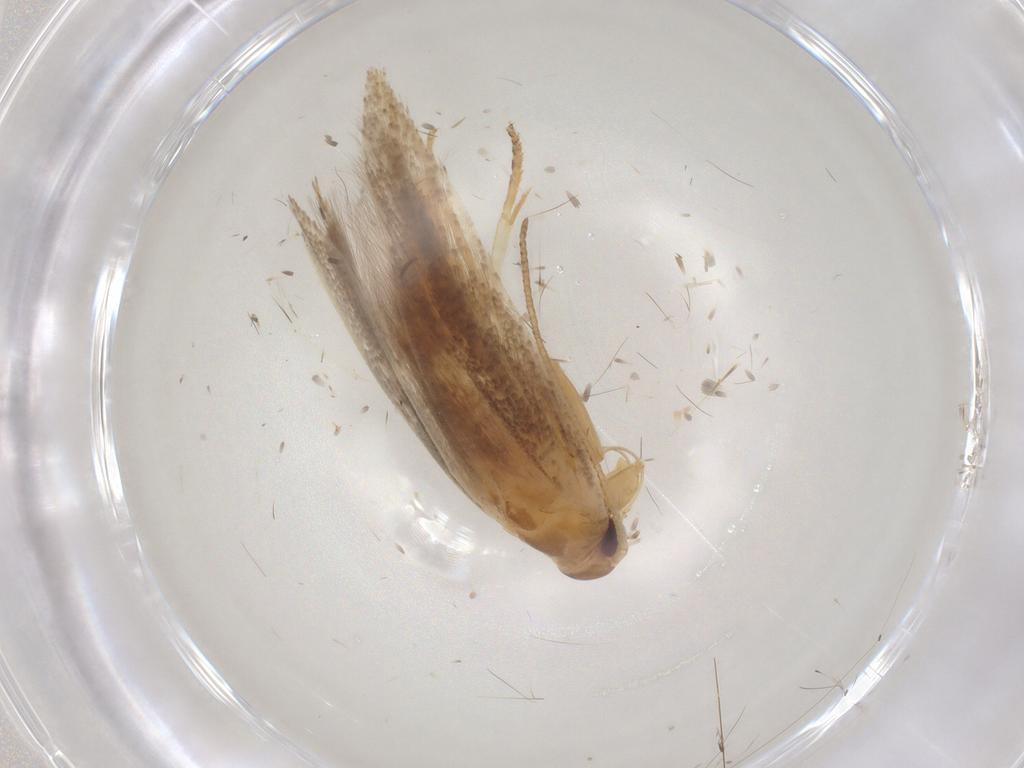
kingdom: Animalia
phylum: Arthropoda
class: Insecta
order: Lepidoptera
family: Gelechiidae
